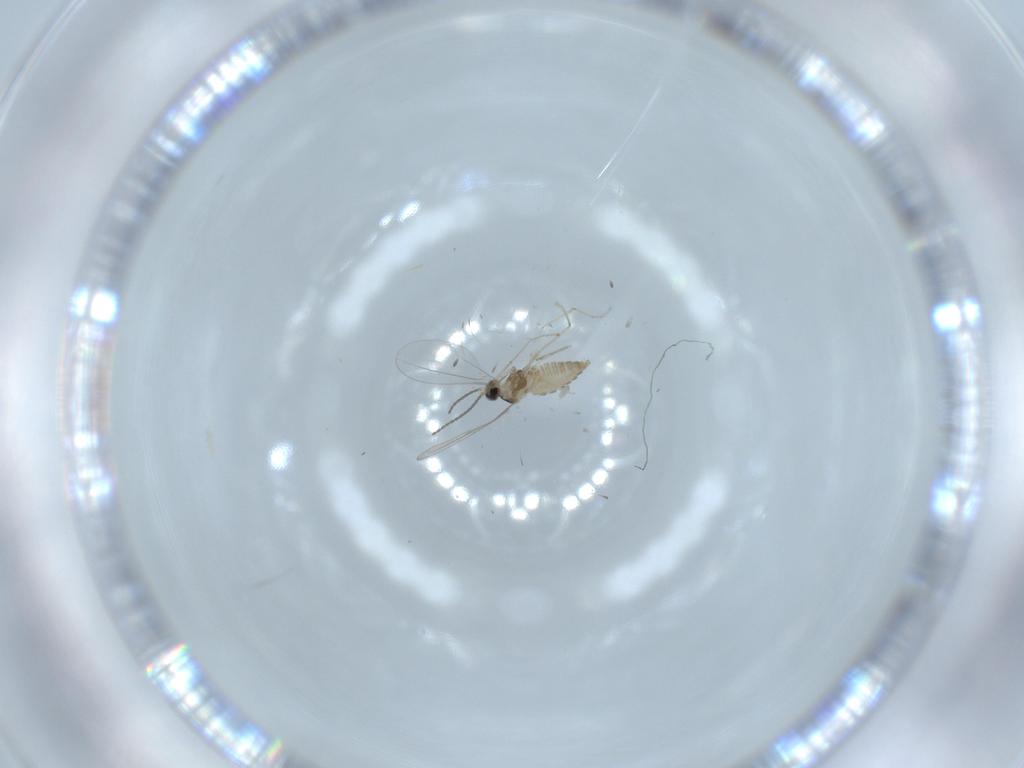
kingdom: Animalia
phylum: Arthropoda
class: Insecta
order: Diptera
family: Cecidomyiidae
